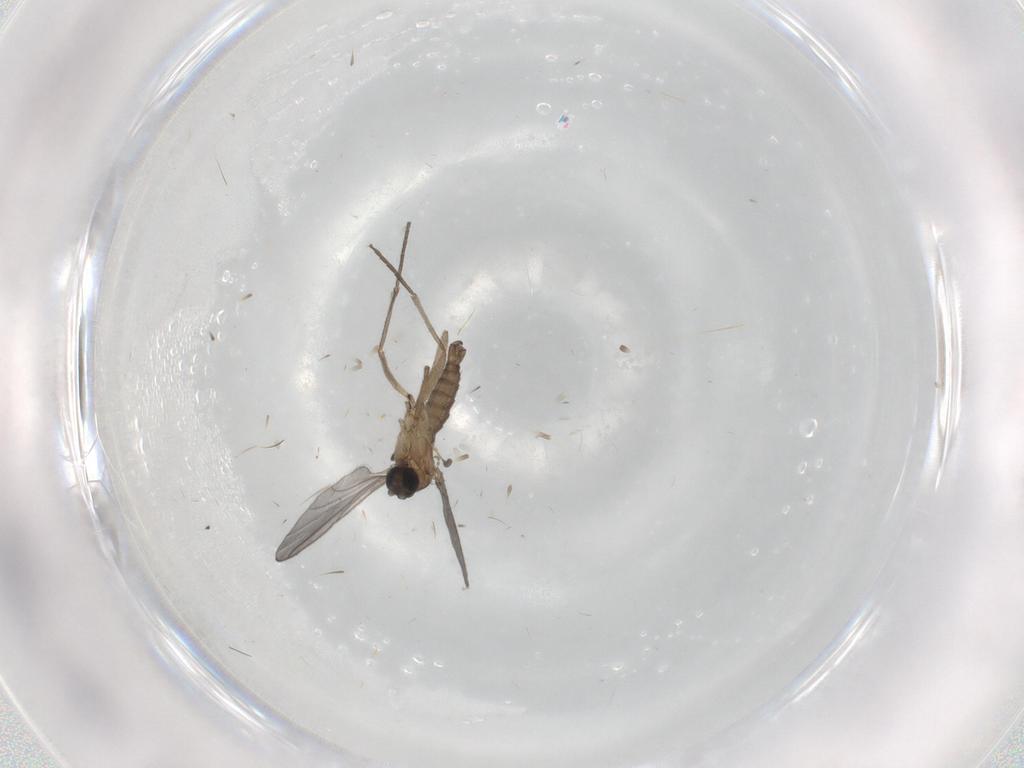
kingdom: Animalia
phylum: Arthropoda
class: Insecta
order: Diptera
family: Sciaridae
